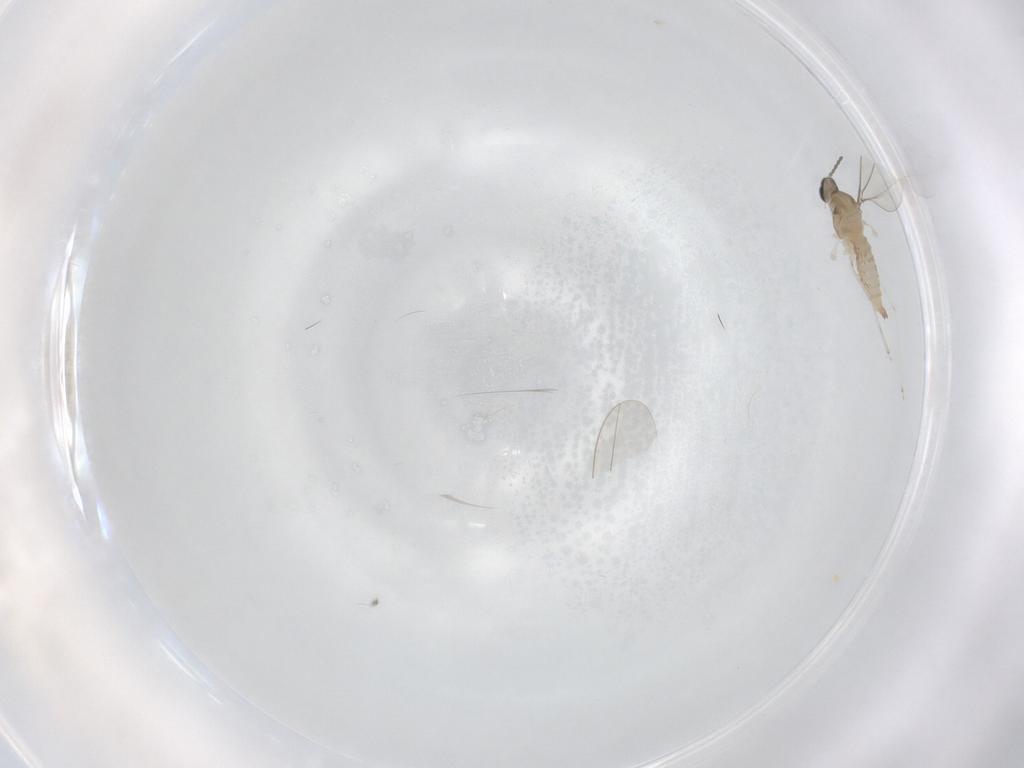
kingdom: Animalia
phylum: Arthropoda
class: Insecta
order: Diptera
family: Cecidomyiidae
